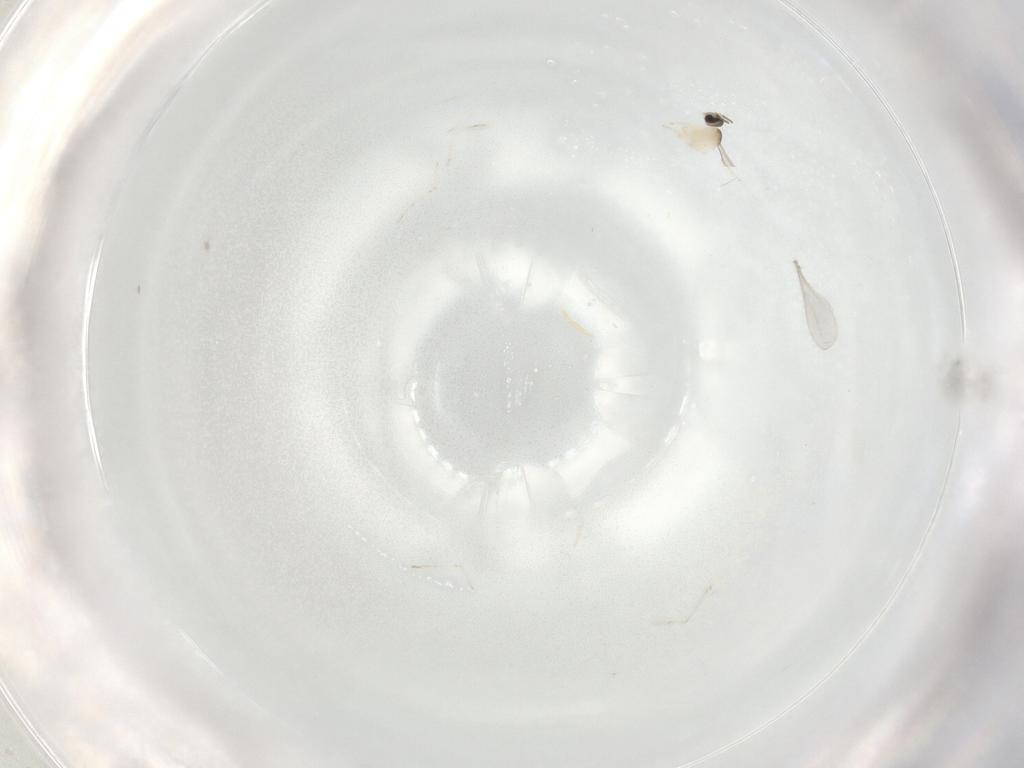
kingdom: Animalia
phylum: Arthropoda
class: Insecta
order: Diptera
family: Cecidomyiidae
